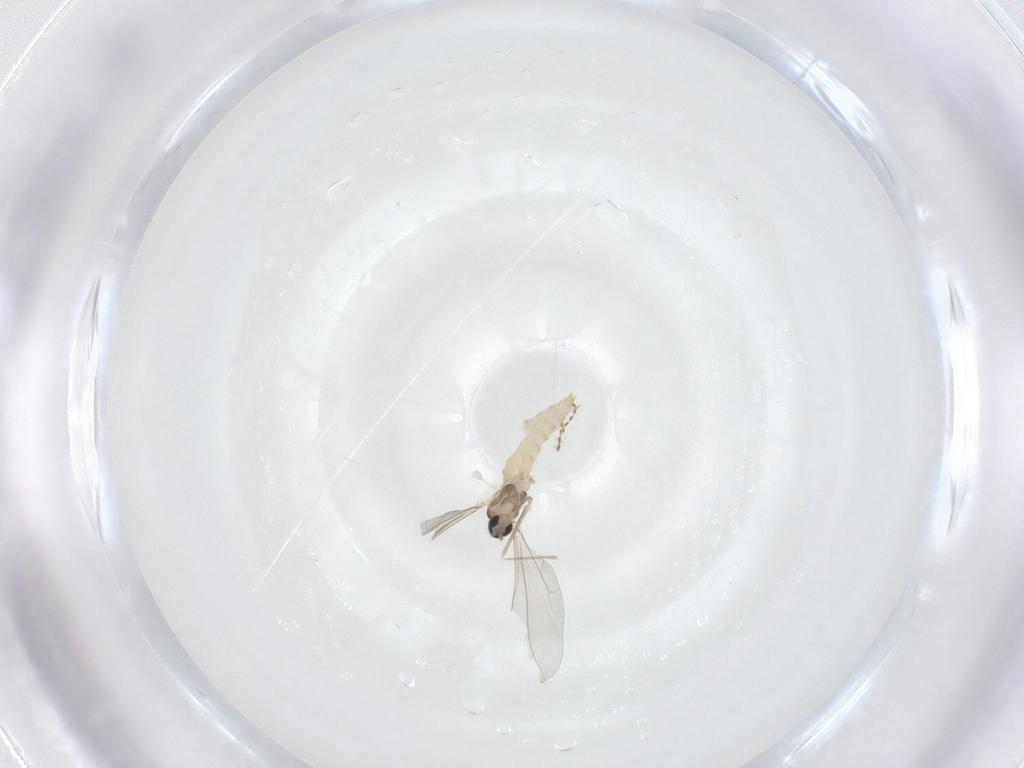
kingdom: Animalia
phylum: Arthropoda
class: Insecta
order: Diptera
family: Cecidomyiidae
